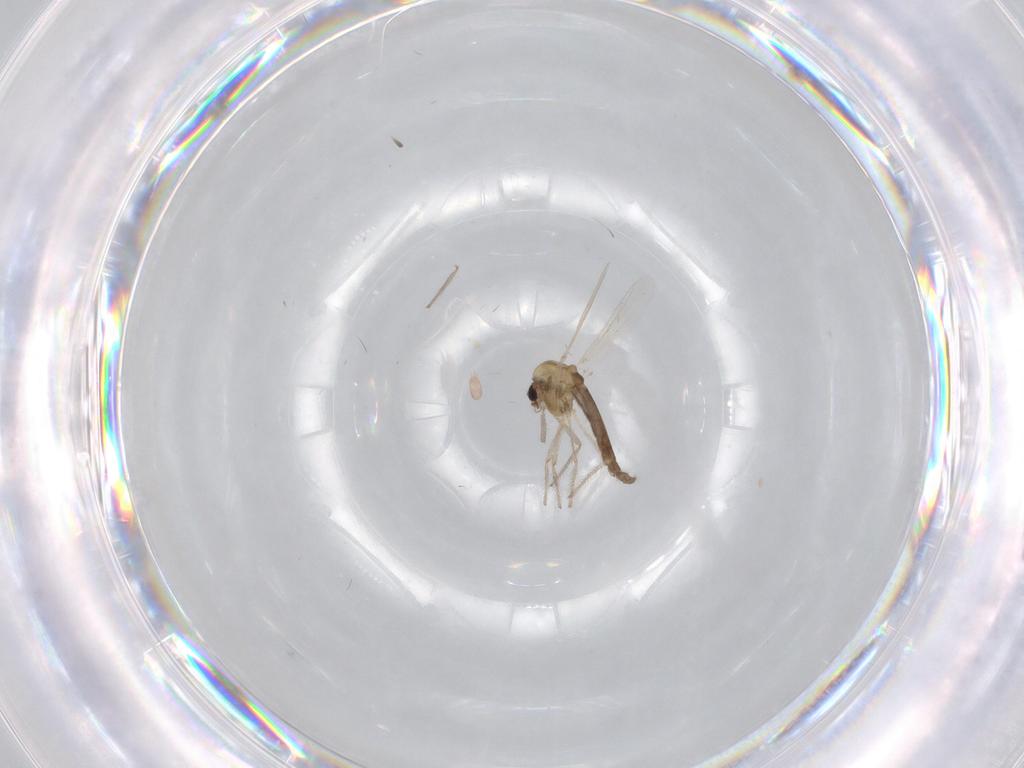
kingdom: Animalia
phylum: Arthropoda
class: Insecta
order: Diptera
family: Chironomidae
